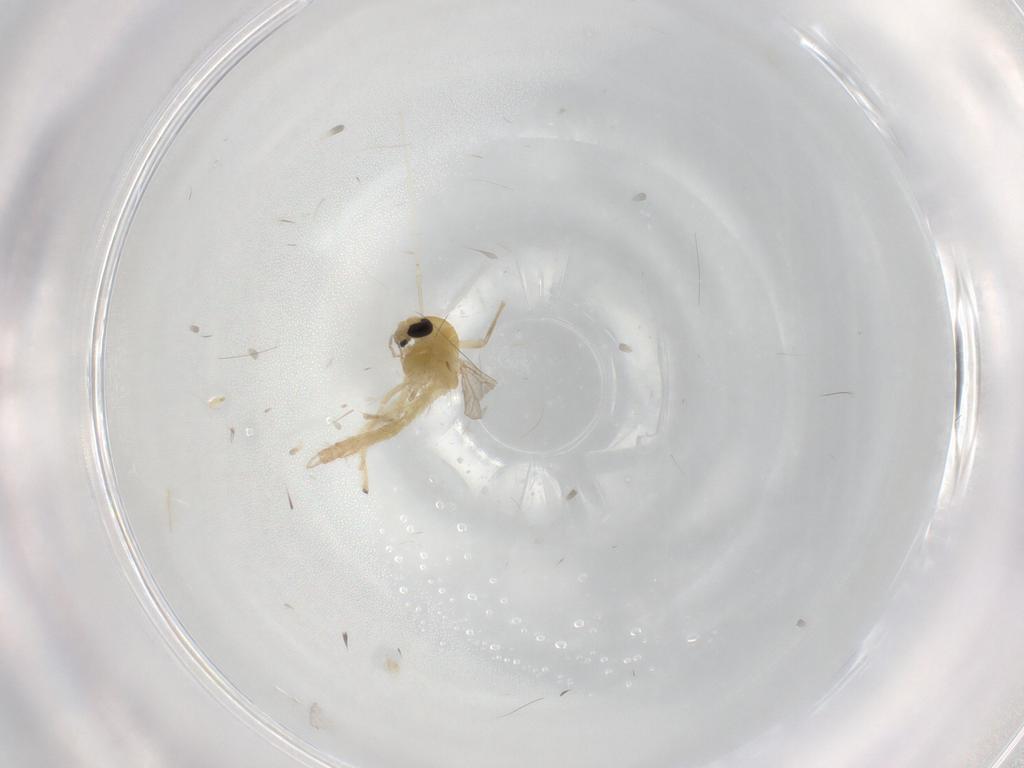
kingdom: Animalia
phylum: Arthropoda
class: Insecta
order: Diptera
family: Chironomidae
